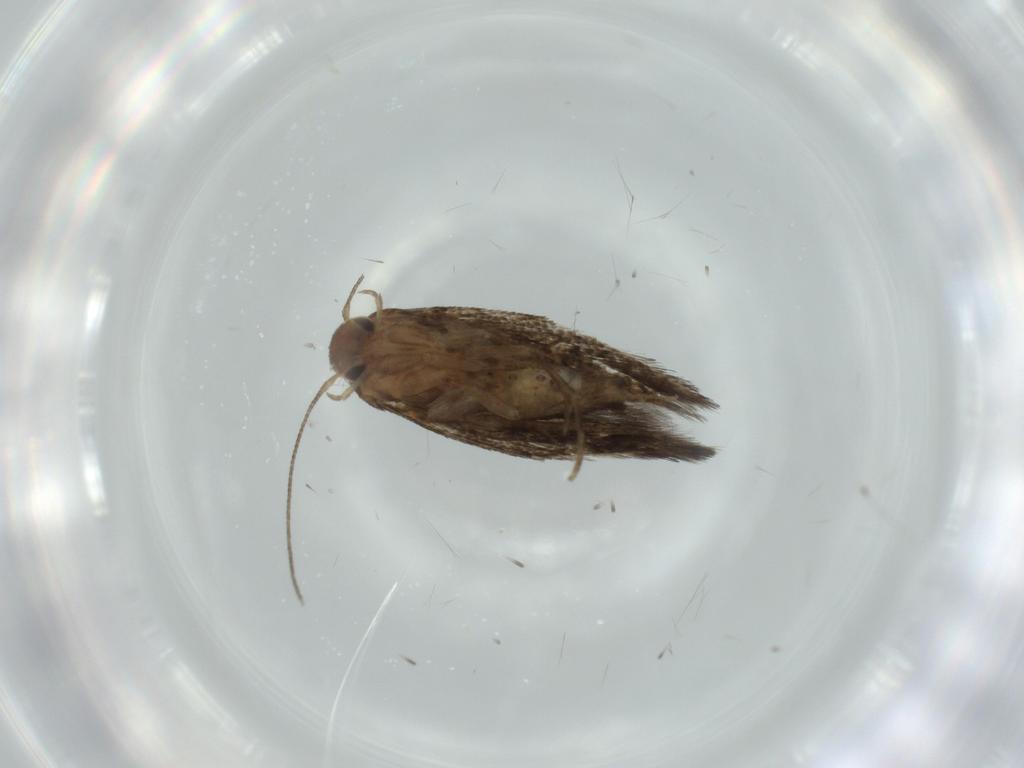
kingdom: Animalia
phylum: Arthropoda
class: Insecta
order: Lepidoptera
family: Gelechiidae
